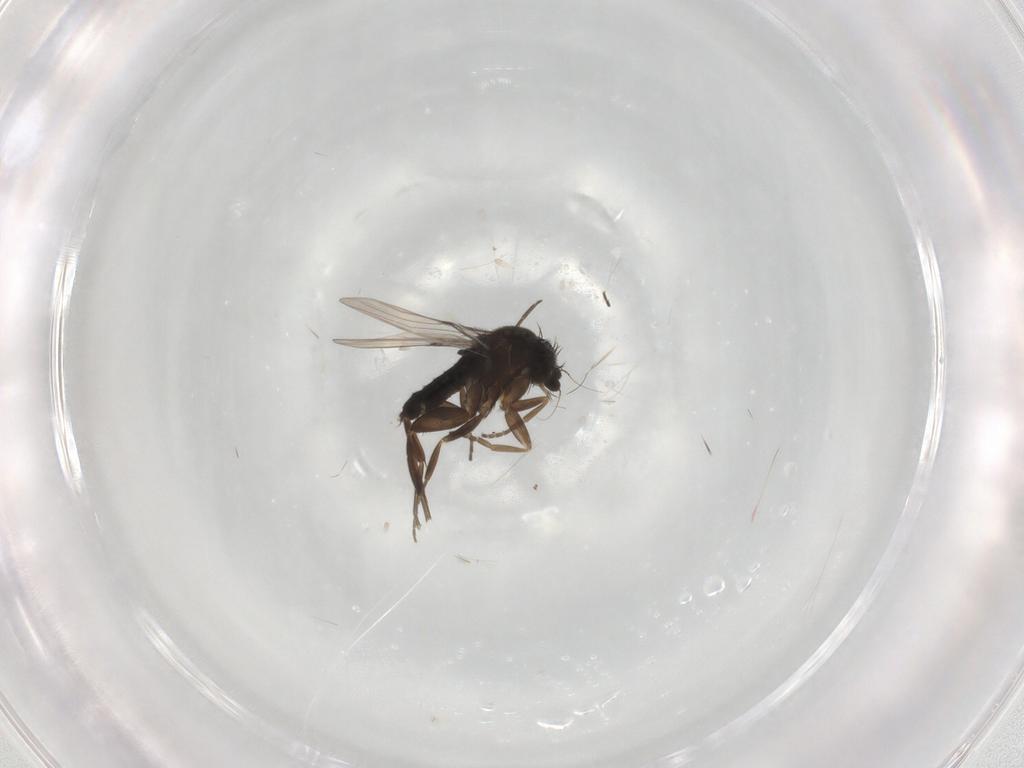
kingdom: Animalia
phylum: Arthropoda
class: Insecta
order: Diptera
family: Phoridae
